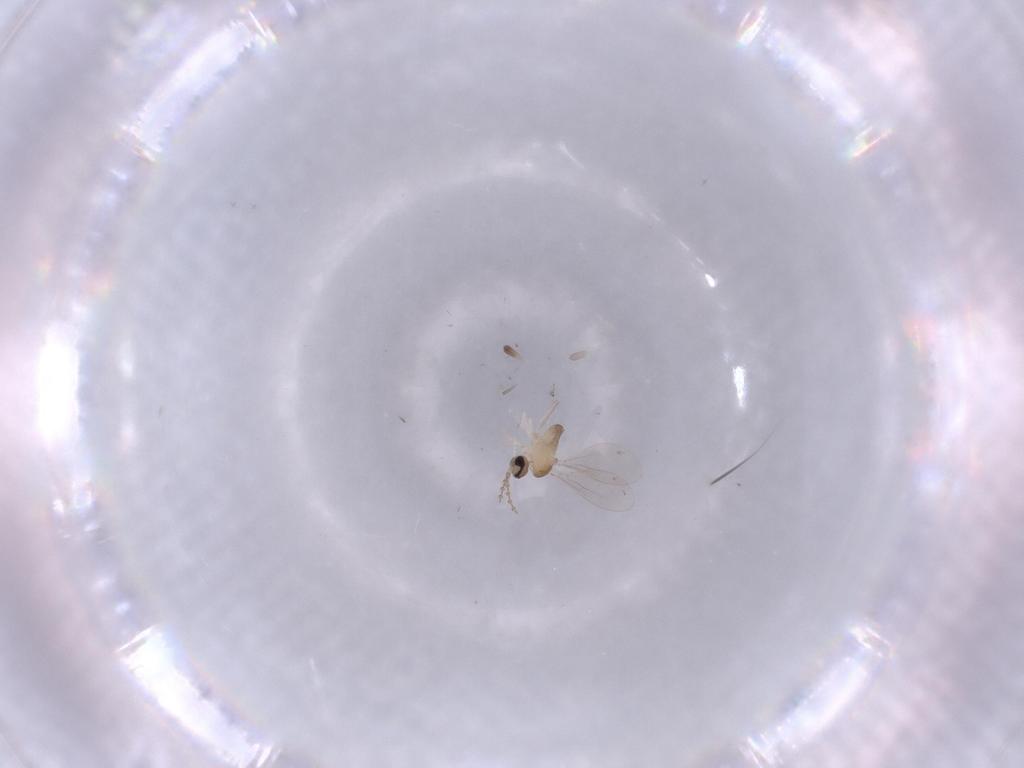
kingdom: Animalia
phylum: Arthropoda
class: Insecta
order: Diptera
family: Cecidomyiidae
